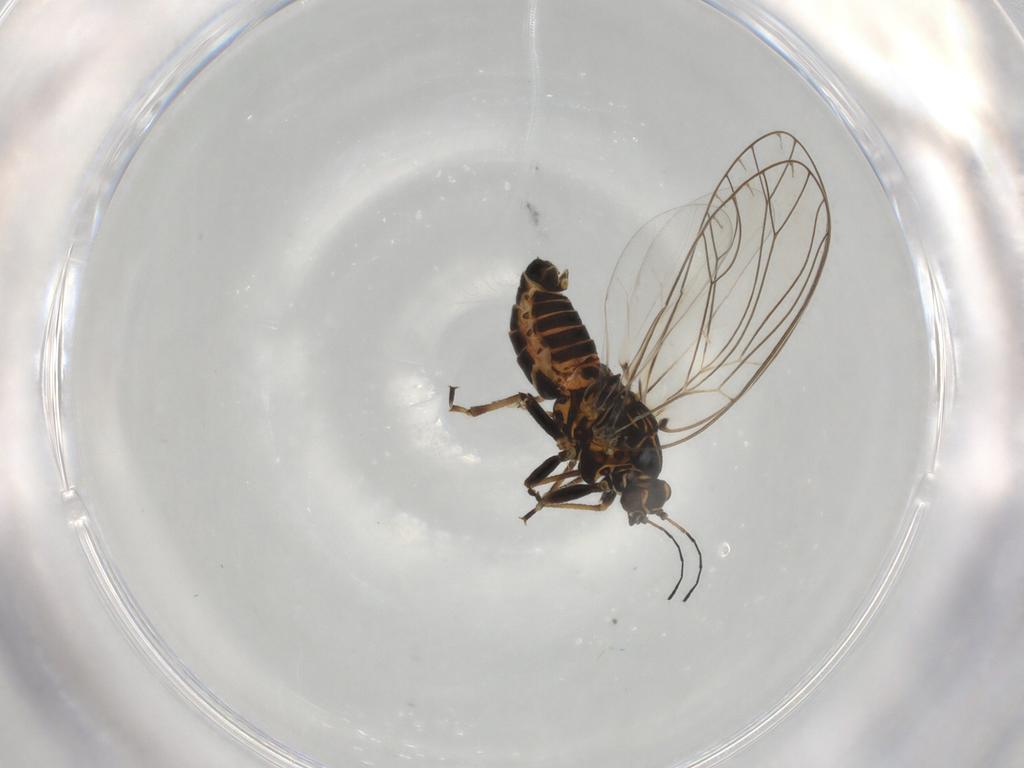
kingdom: Animalia
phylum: Arthropoda
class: Insecta
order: Hemiptera
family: Cicadellidae
